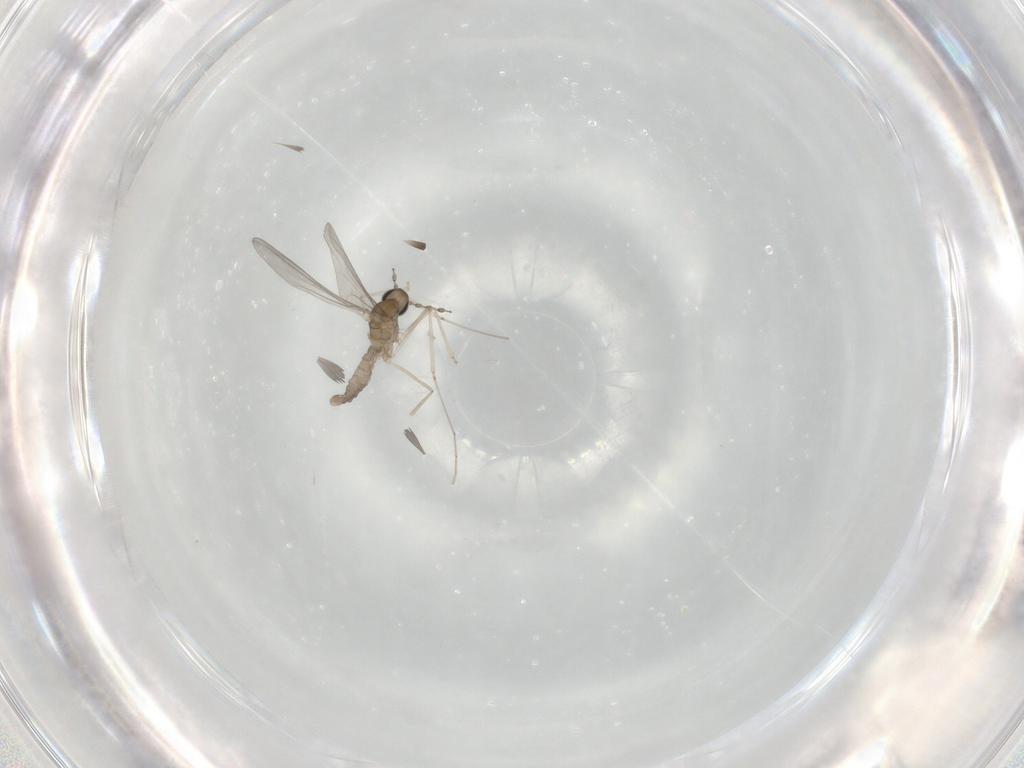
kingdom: Animalia
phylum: Arthropoda
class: Insecta
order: Diptera
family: Cecidomyiidae
